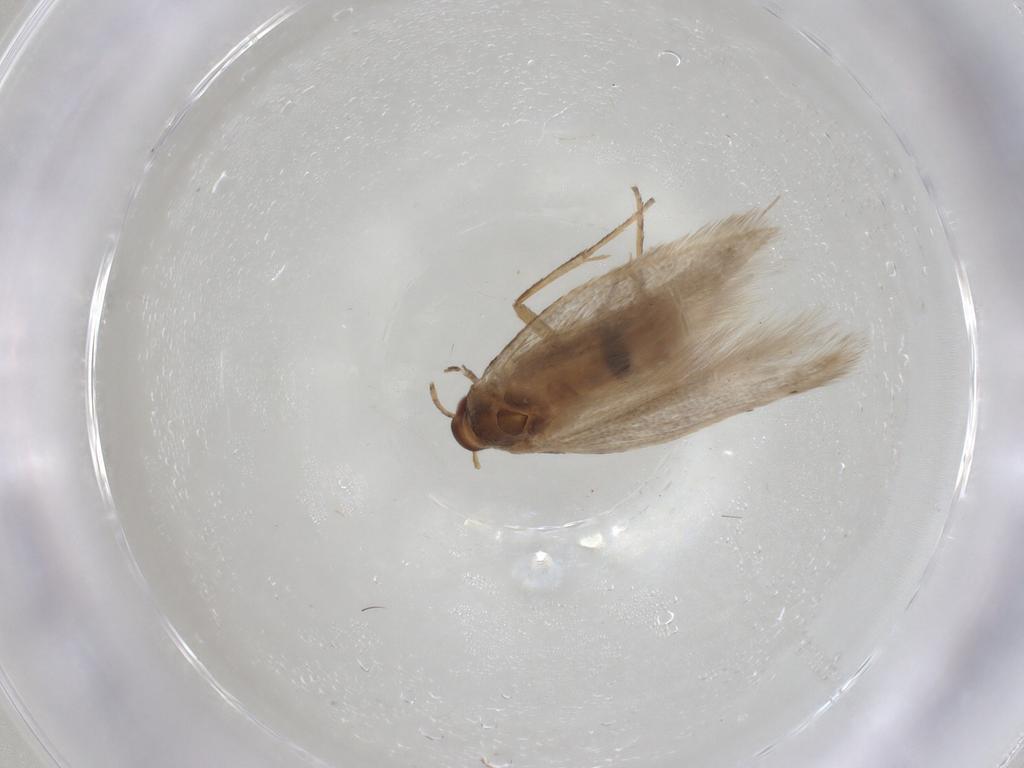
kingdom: Animalia
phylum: Arthropoda
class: Insecta
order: Lepidoptera
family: Crambidae
